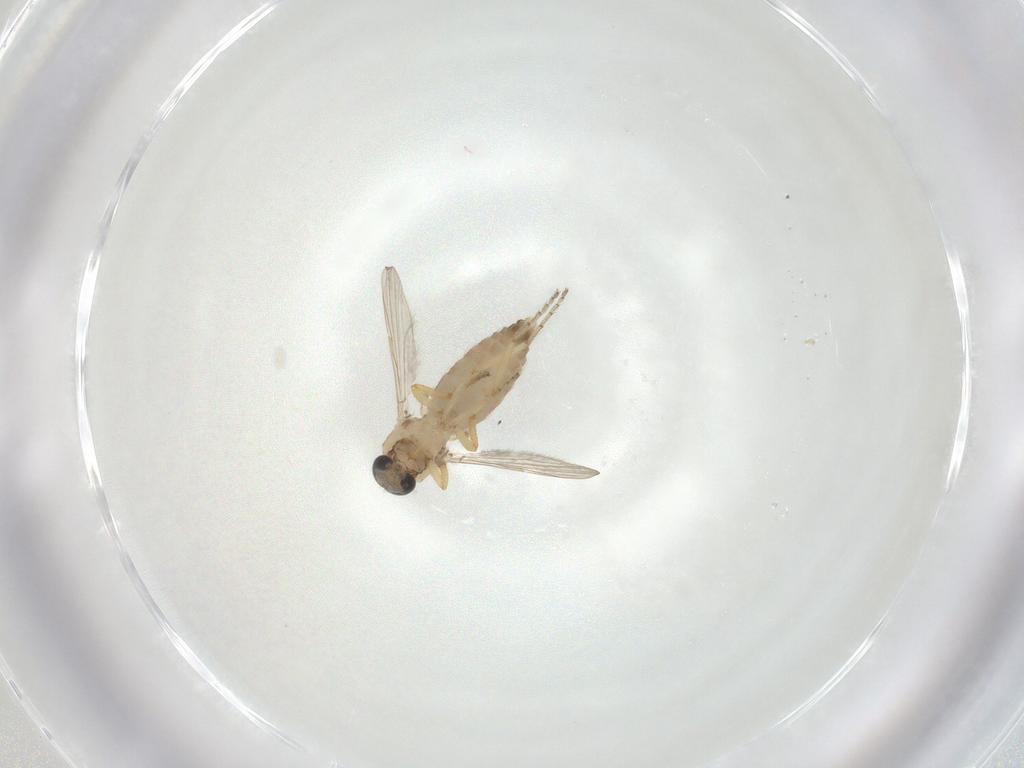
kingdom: Animalia
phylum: Arthropoda
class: Insecta
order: Diptera
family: Ceratopogonidae
